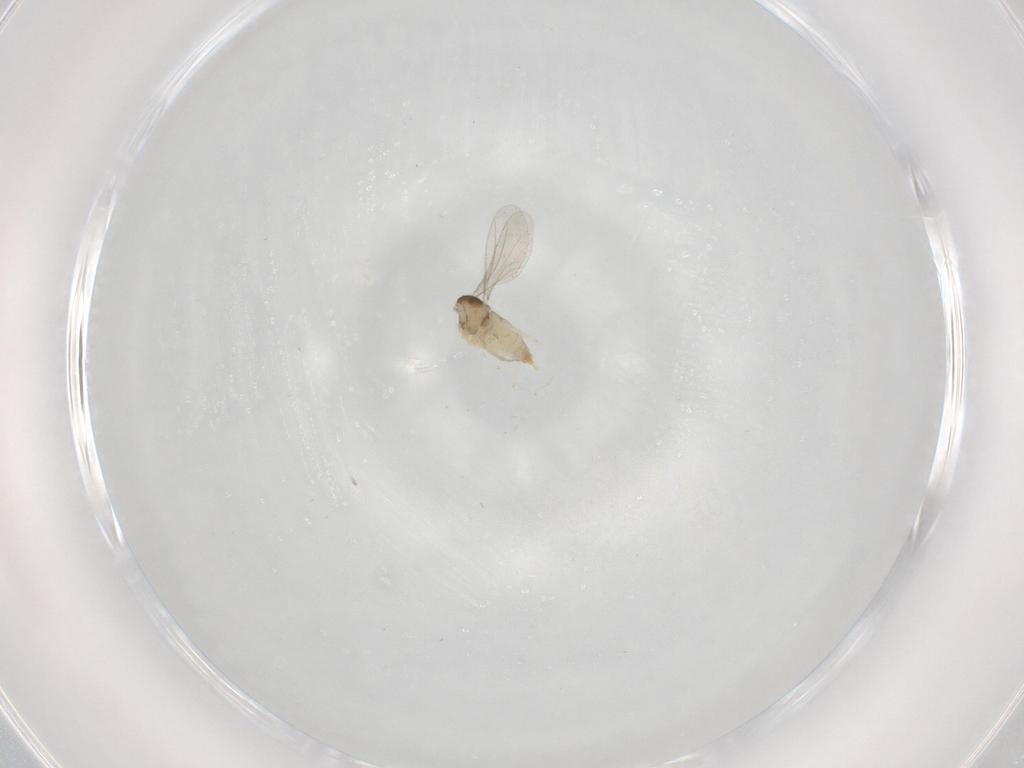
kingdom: Animalia
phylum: Arthropoda
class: Insecta
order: Diptera
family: Cecidomyiidae
